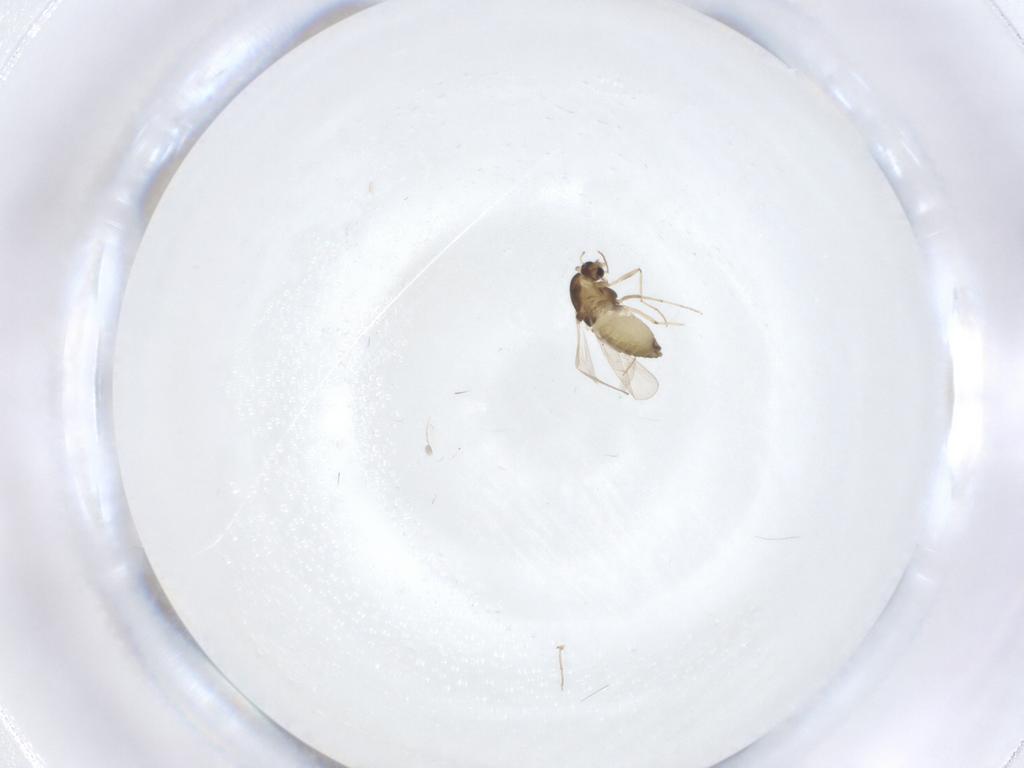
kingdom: Animalia
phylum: Arthropoda
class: Insecta
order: Diptera
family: Chironomidae
